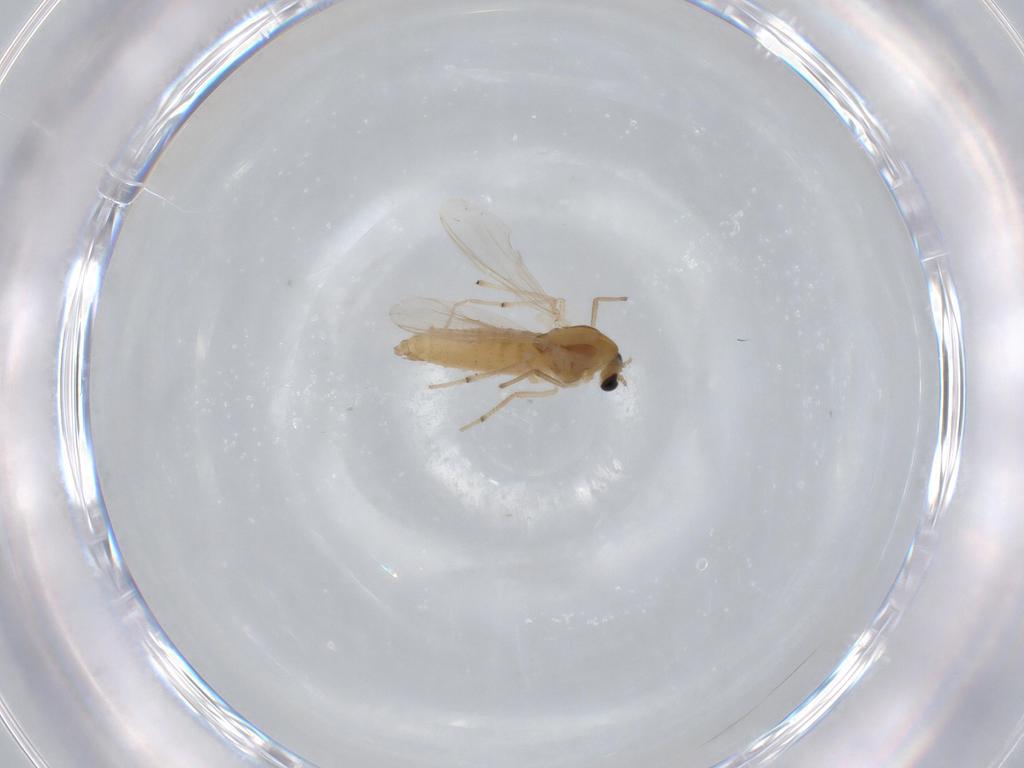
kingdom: Animalia
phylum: Arthropoda
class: Insecta
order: Diptera
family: Chironomidae
